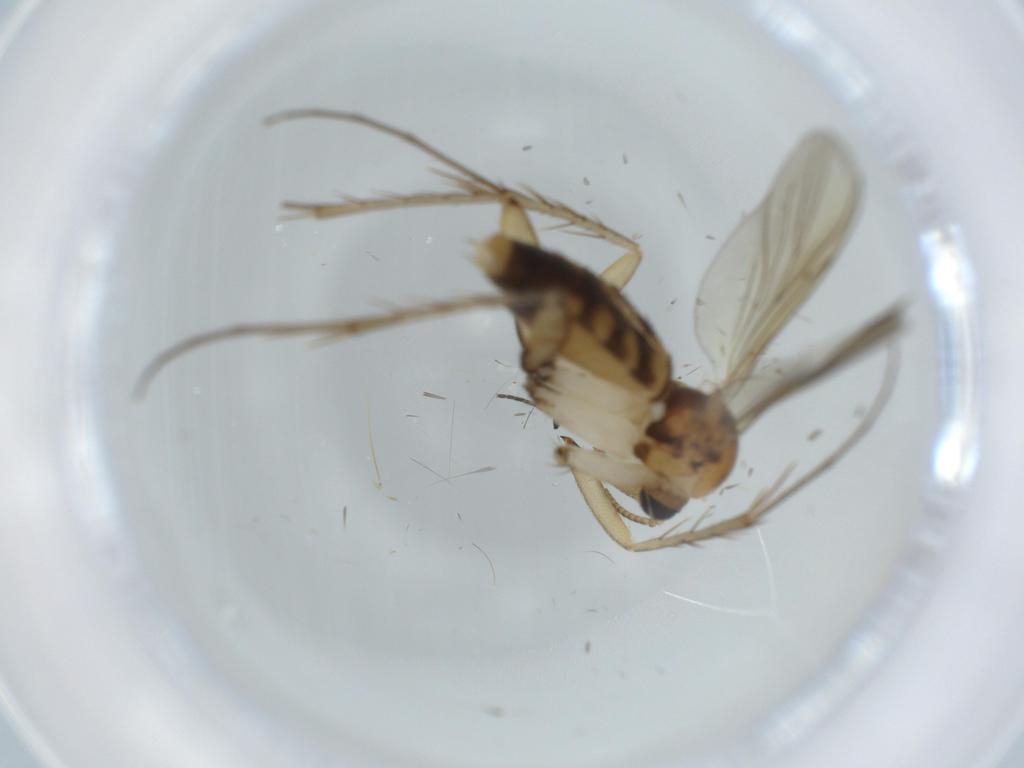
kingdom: Animalia
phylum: Arthropoda
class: Insecta
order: Diptera
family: Mycetophilidae
